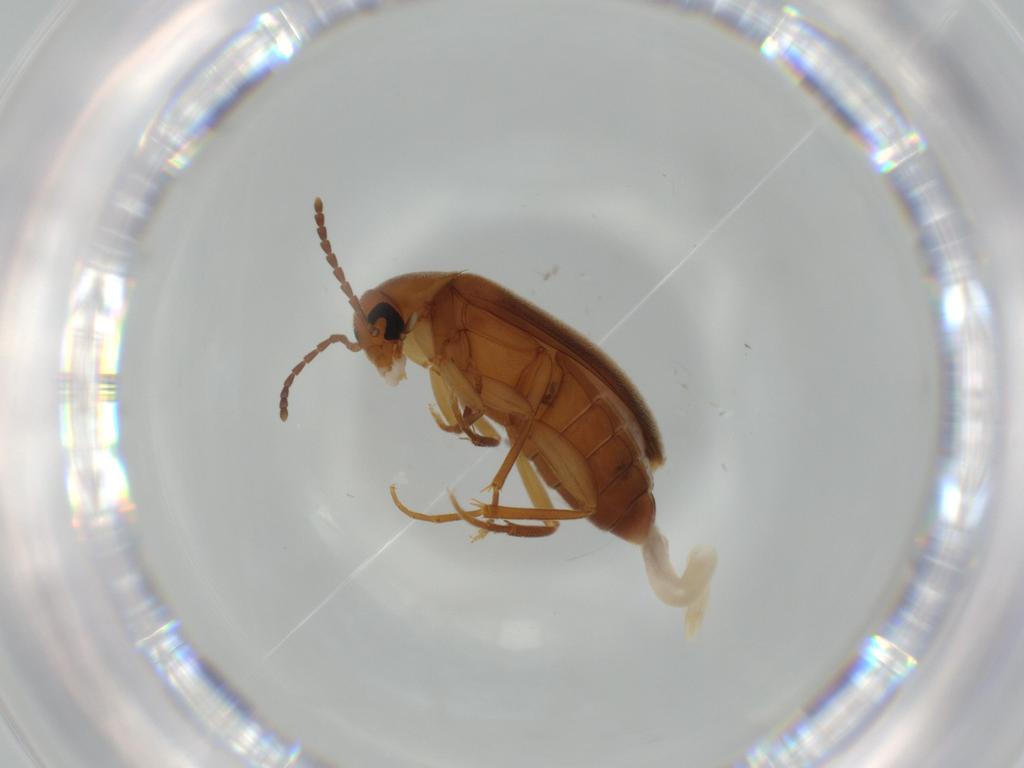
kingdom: Animalia
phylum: Arthropoda
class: Insecta
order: Coleoptera
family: Scraptiidae
